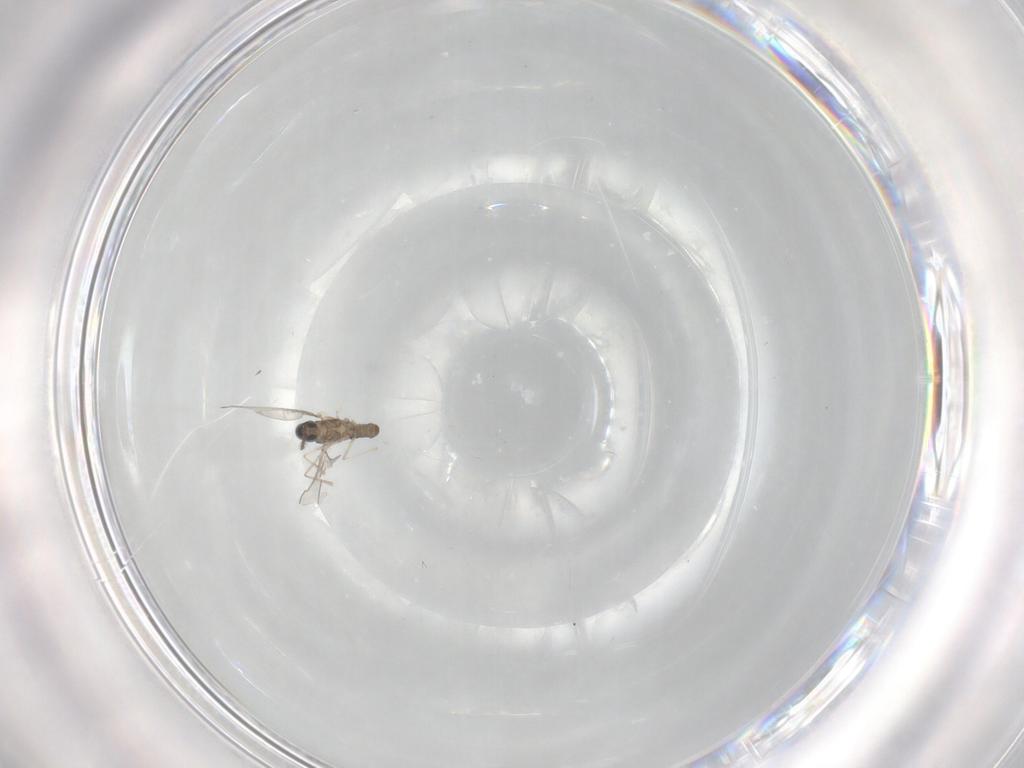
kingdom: Animalia
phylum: Arthropoda
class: Insecta
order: Diptera
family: Cecidomyiidae
